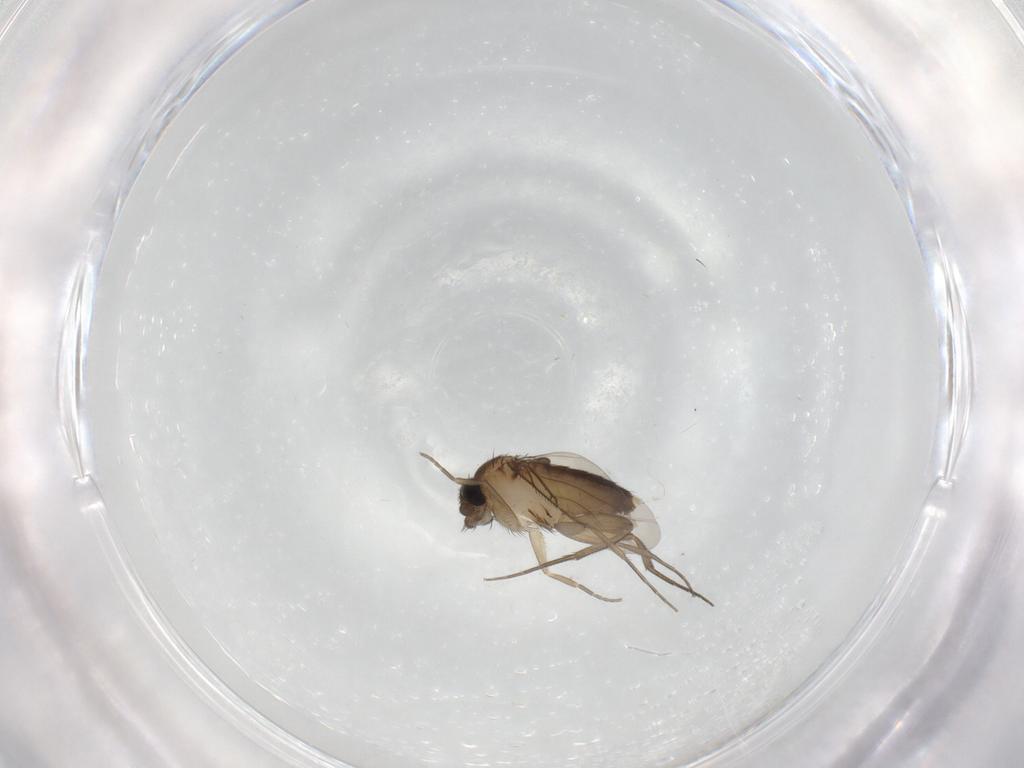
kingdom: Animalia
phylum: Arthropoda
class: Insecta
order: Diptera
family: Phoridae
